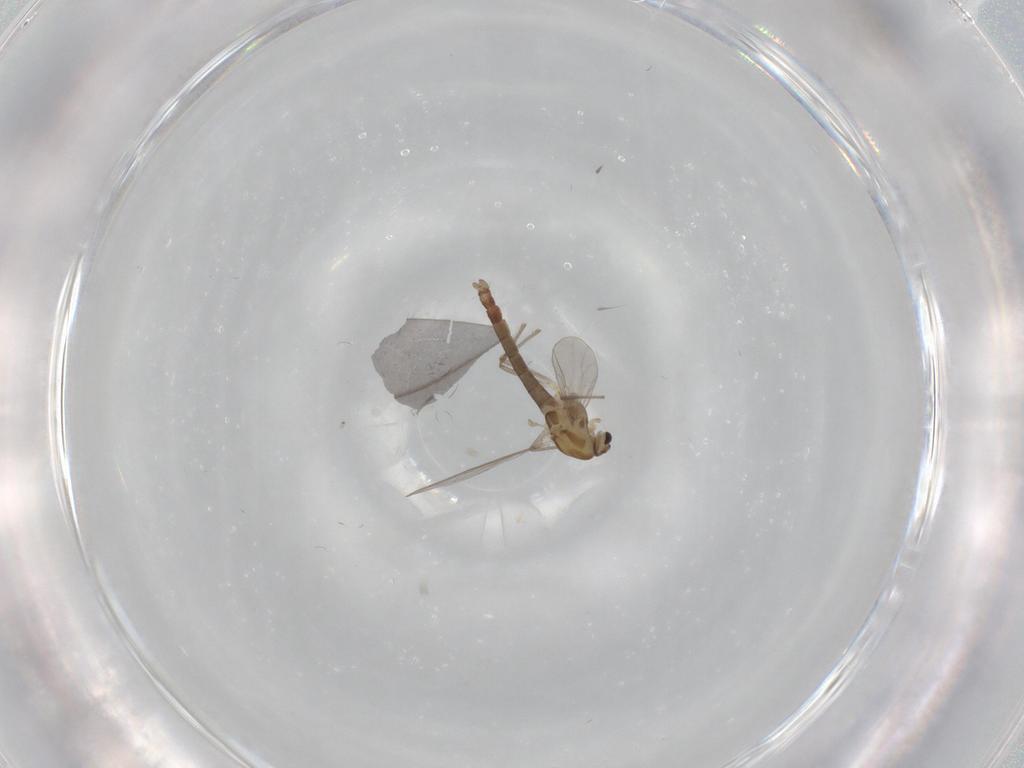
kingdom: Animalia
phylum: Arthropoda
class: Insecta
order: Diptera
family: Chironomidae
